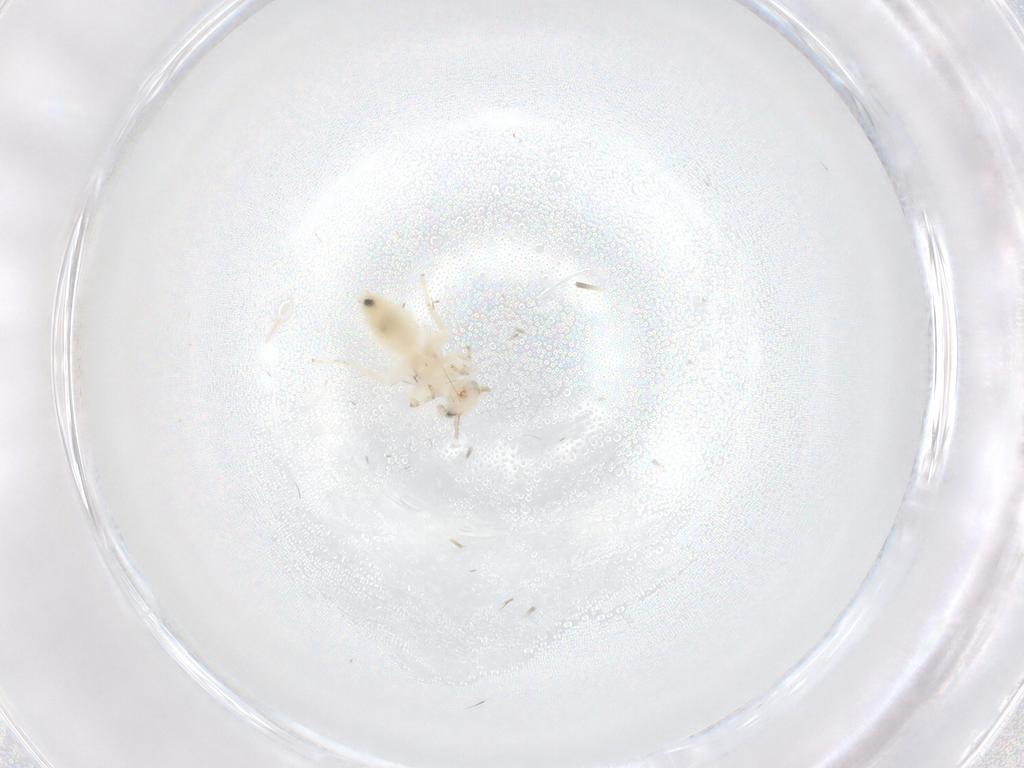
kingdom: Animalia
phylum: Arthropoda
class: Insecta
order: Psocodea
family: Lepidopsocidae
